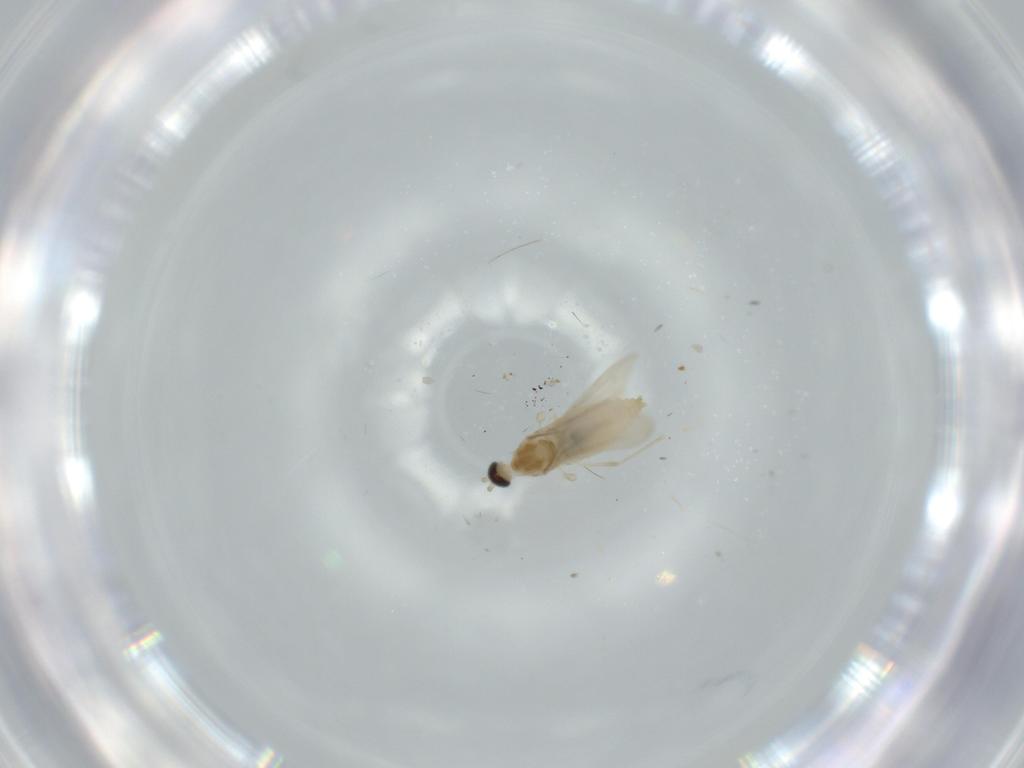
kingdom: Animalia
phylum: Arthropoda
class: Insecta
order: Diptera
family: Cecidomyiidae
